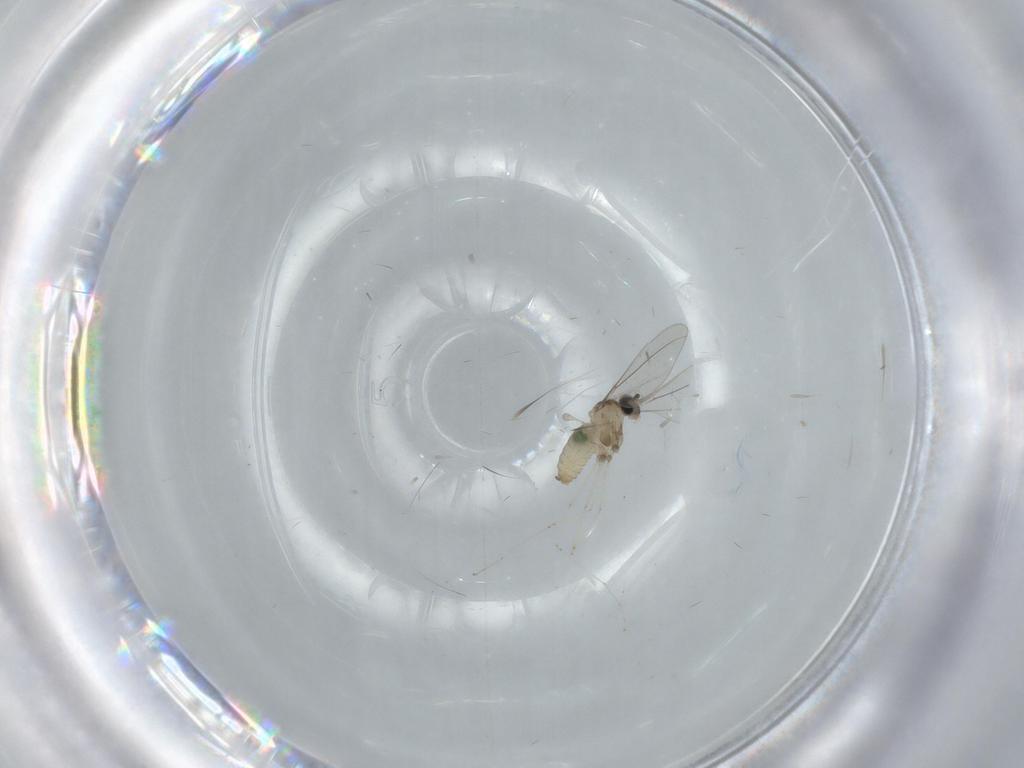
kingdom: Animalia
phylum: Arthropoda
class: Insecta
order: Diptera
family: Cecidomyiidae
